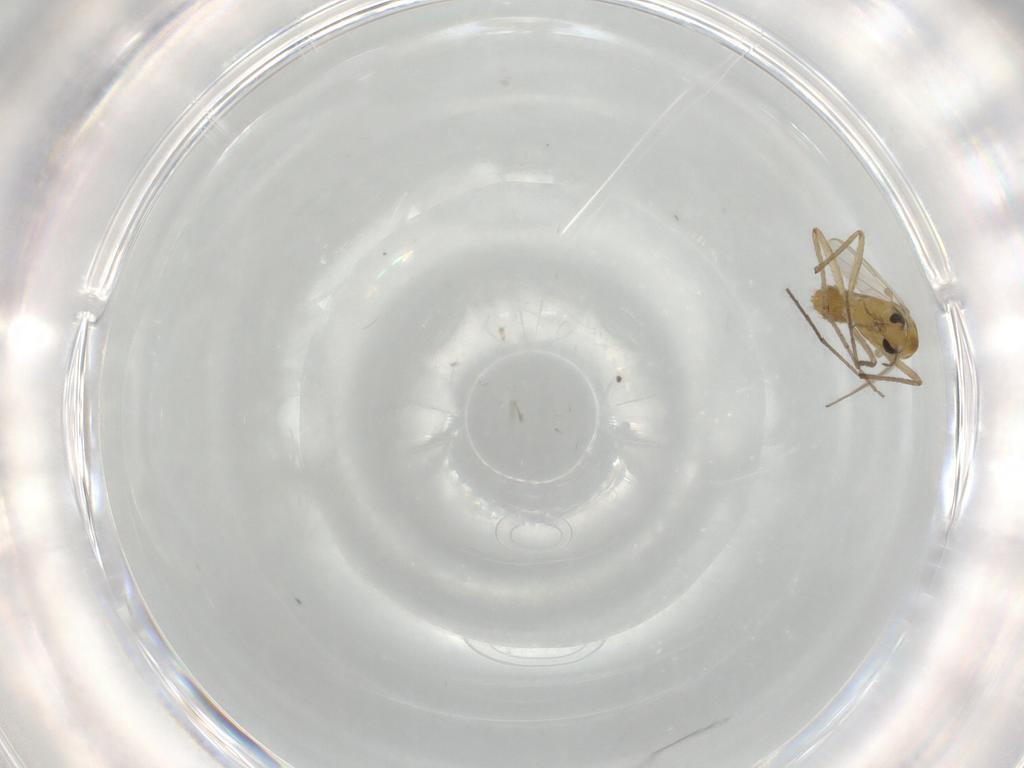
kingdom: Animalia
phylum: Arthropoda
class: Insecta
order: Diptera
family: Chironomidae
